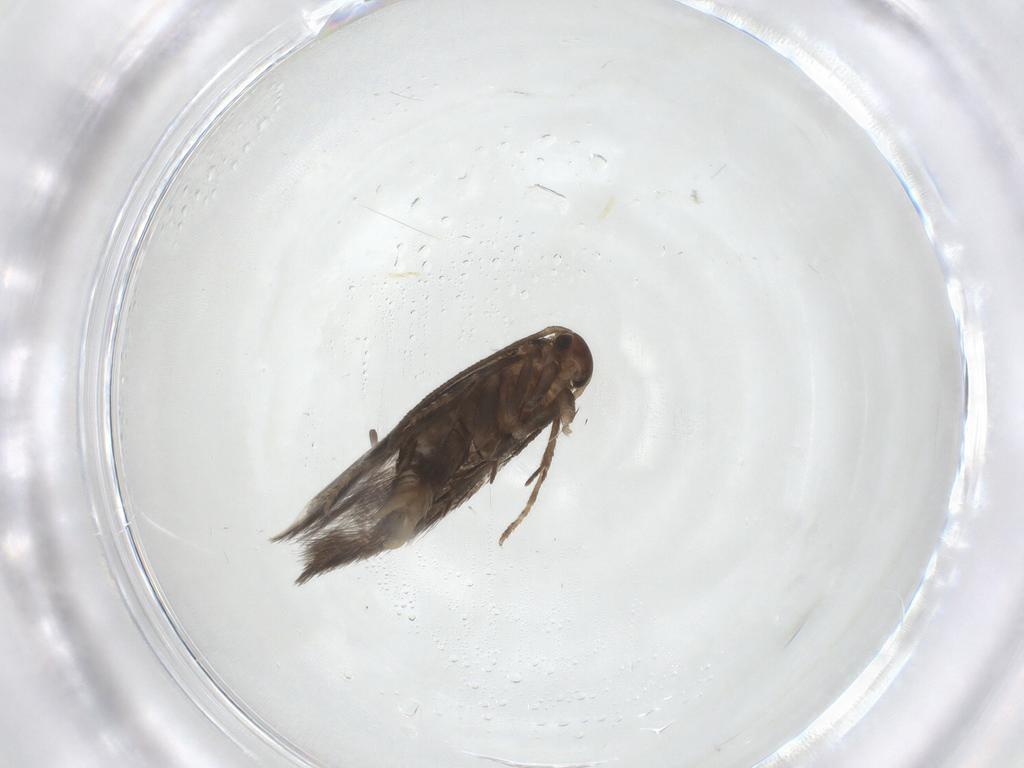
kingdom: Animalia
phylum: Arthropoda
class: Insecta
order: Lepidoptera
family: Elachistidae
